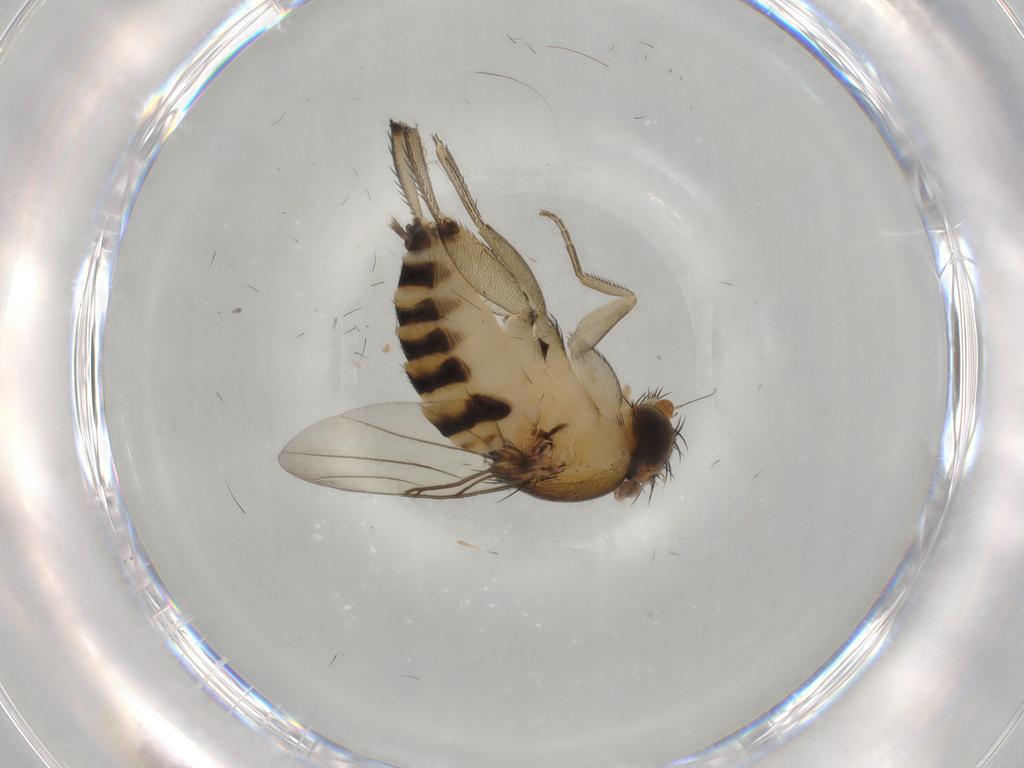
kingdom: Animalia
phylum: Arthropoda
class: Insecta
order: Diptera
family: Phoridae
